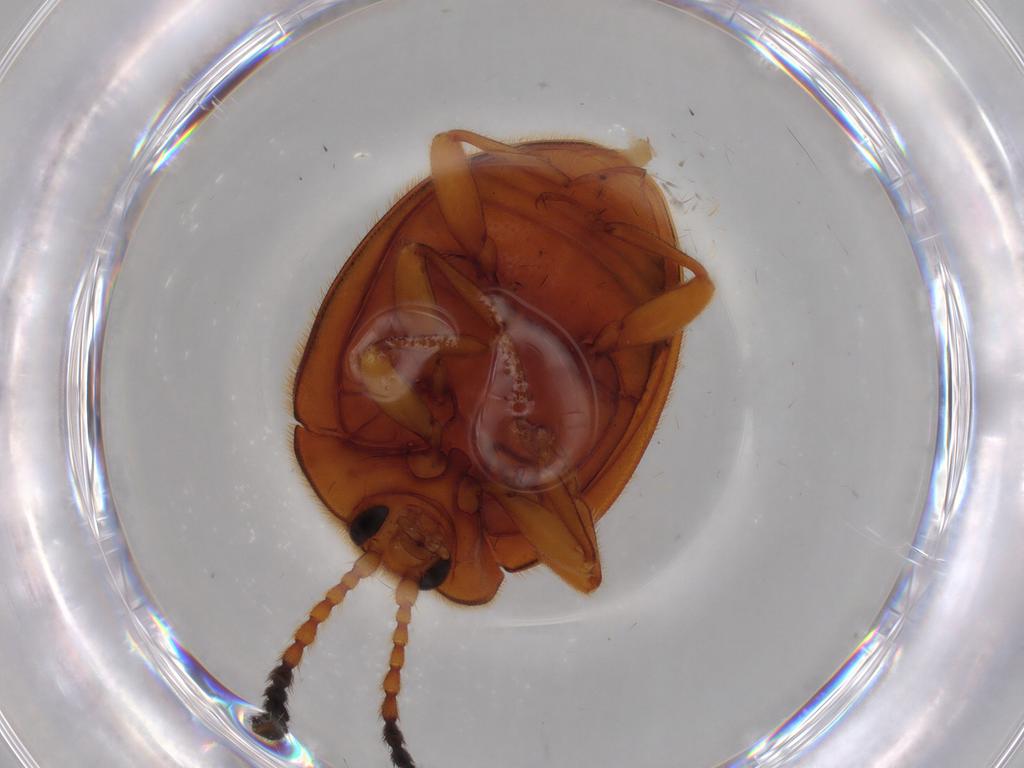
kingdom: Animalia
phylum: Arthropoda
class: Insecta
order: Coleoptera
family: Endomychidae
